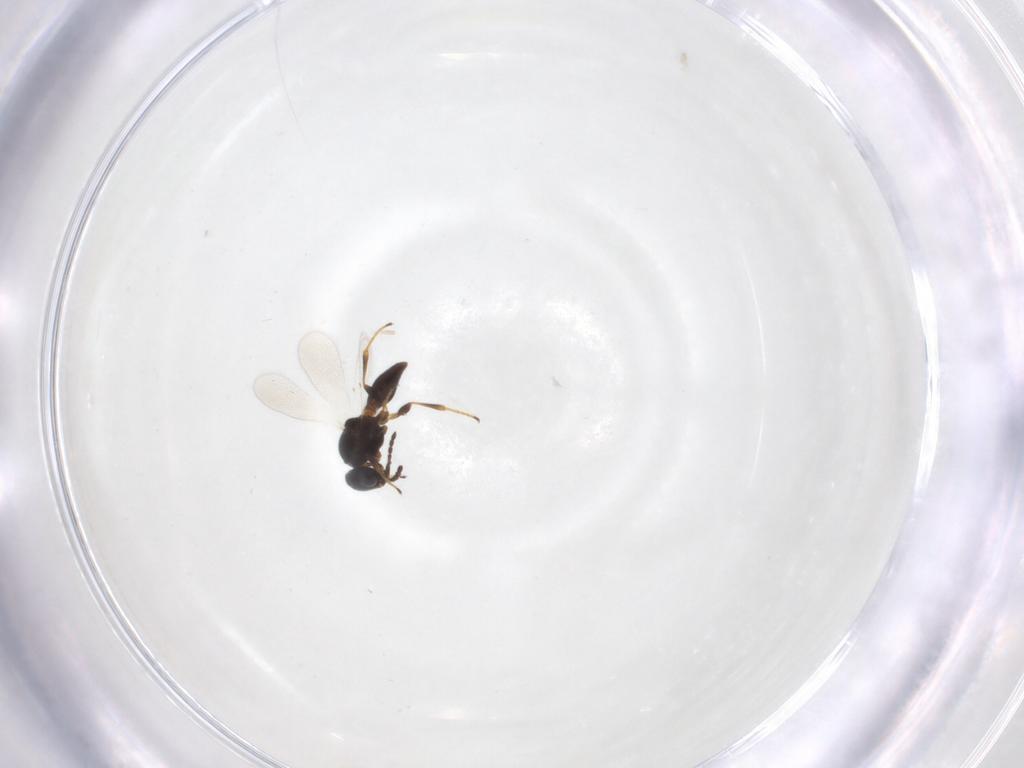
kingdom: Animalia
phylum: Arthropoda
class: Insecta
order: Hymenoptera
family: Platygastridae
